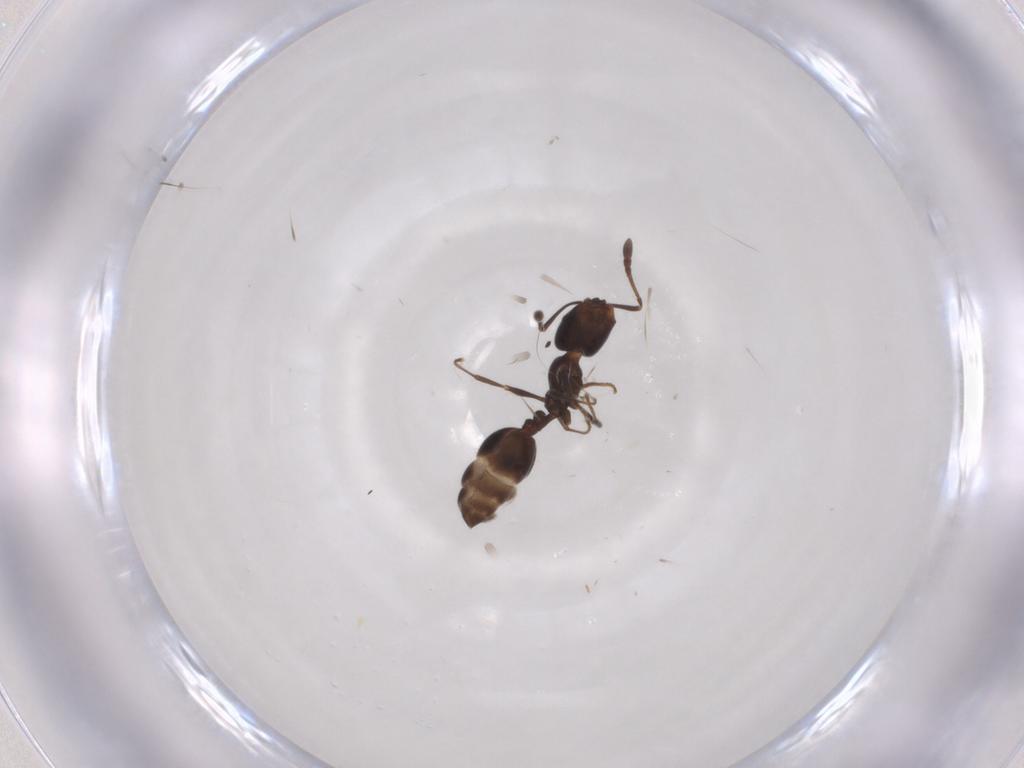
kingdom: Animalia
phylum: Arthropoda
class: Insecta
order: Hymenoptera
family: Formicidae
